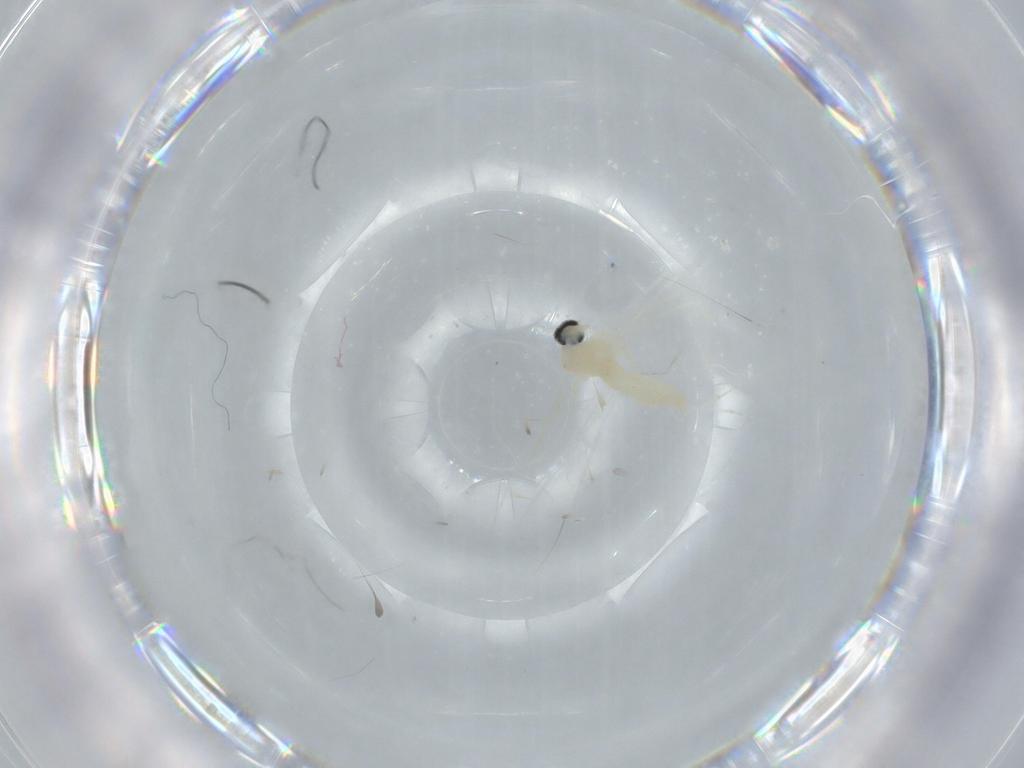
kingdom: Animalia
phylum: Arthropoda
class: Insecta
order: Diptera
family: Cecidomyiidae
